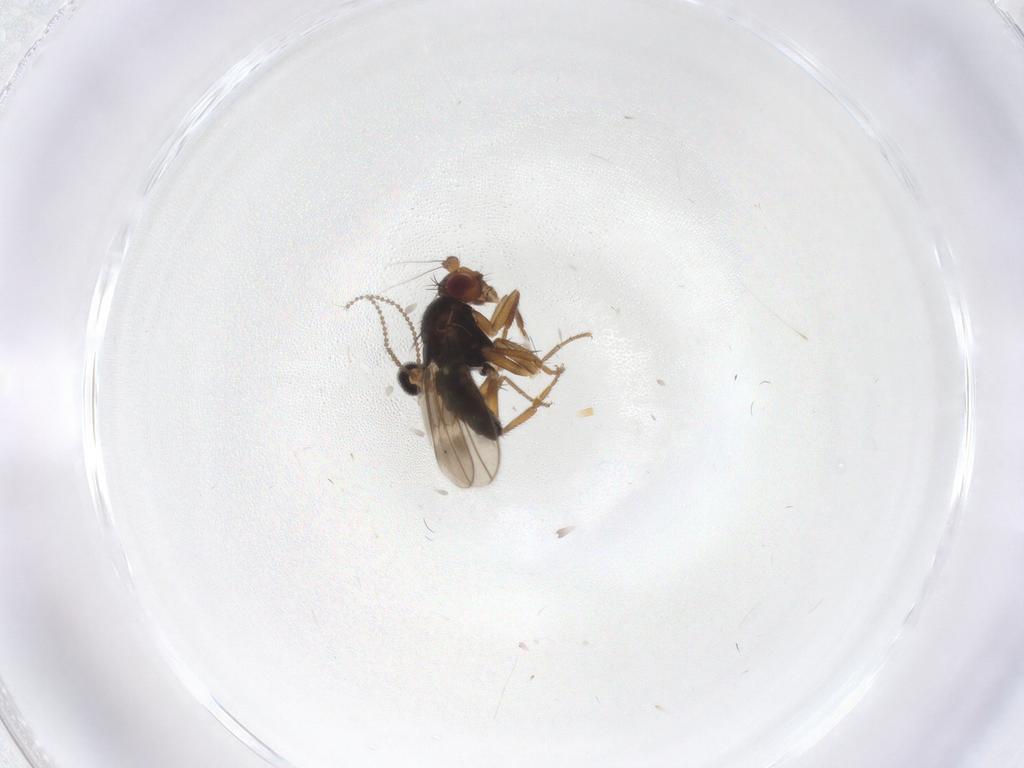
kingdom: Animalia
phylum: Arthropoda
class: Insecta
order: Diptera
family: Sphaeroceridae
